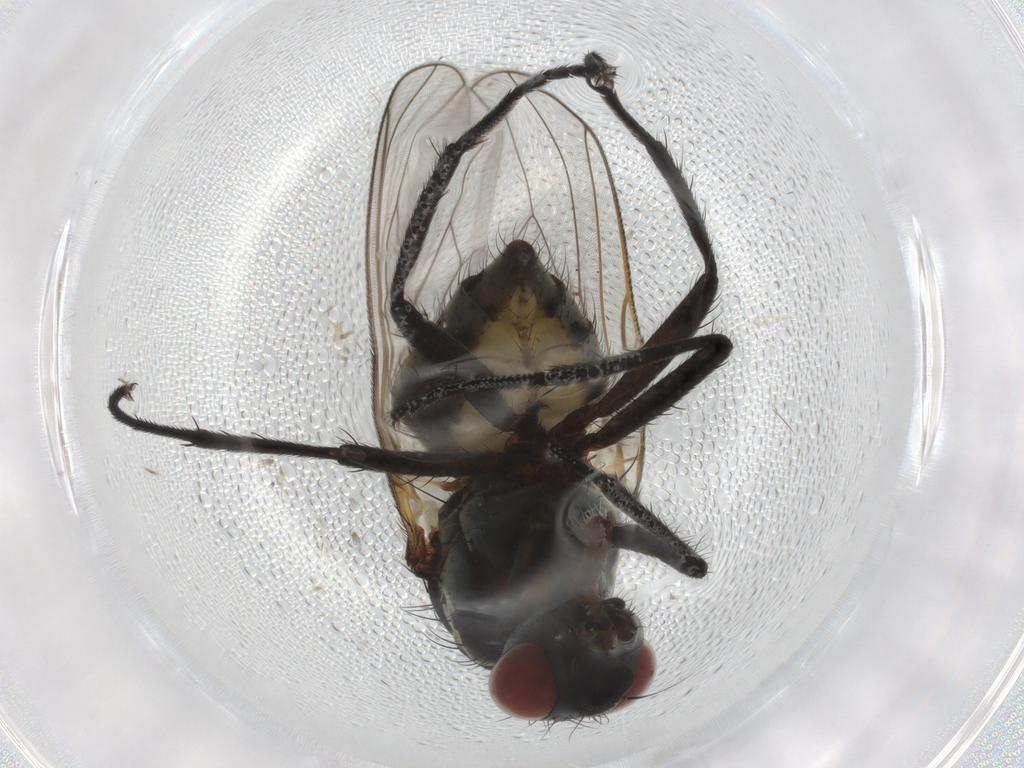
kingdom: Animalia
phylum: Arthropoda
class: Insecta
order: Diptera
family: Anthomyiidae
